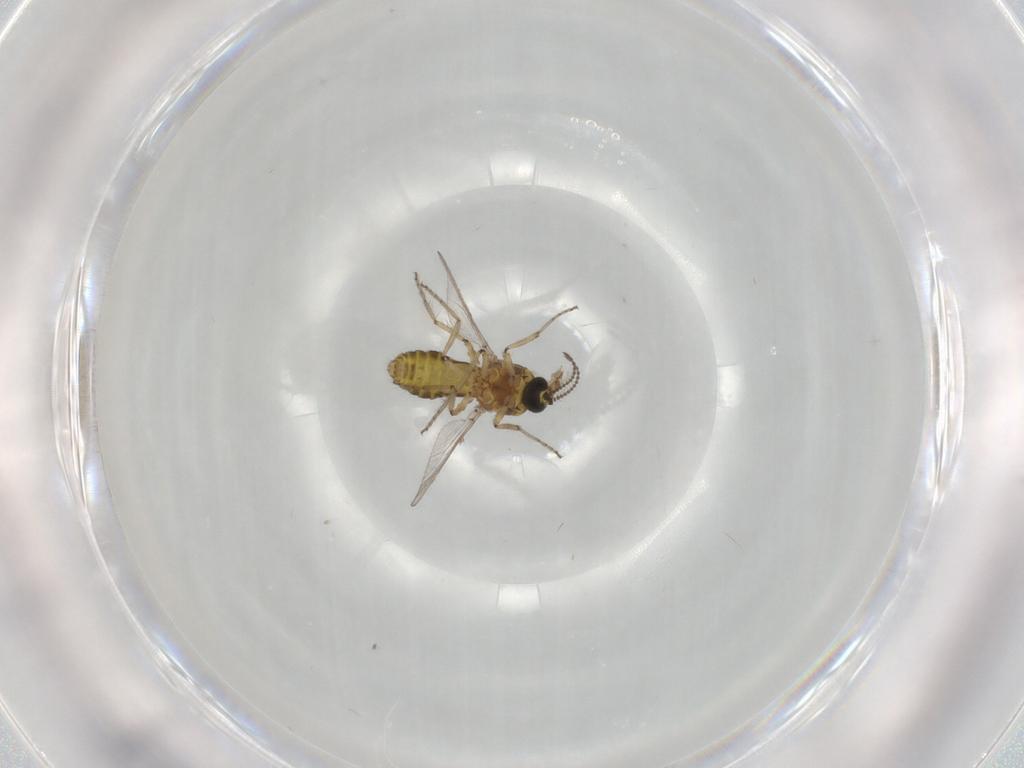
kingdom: Animalia
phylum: Arthropoda
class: Insecta
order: Diptera
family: Ceratopogonidae
